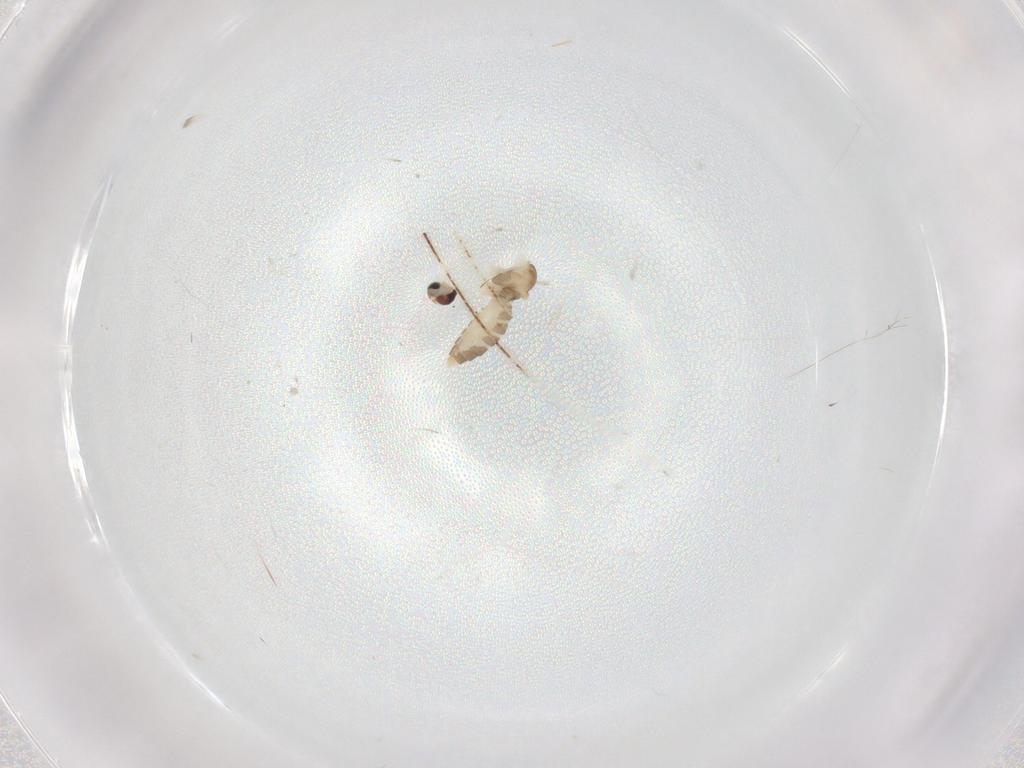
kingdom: Animalia
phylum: Arthropoda
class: Insecta
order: Diptera
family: Cecidomyiidae
